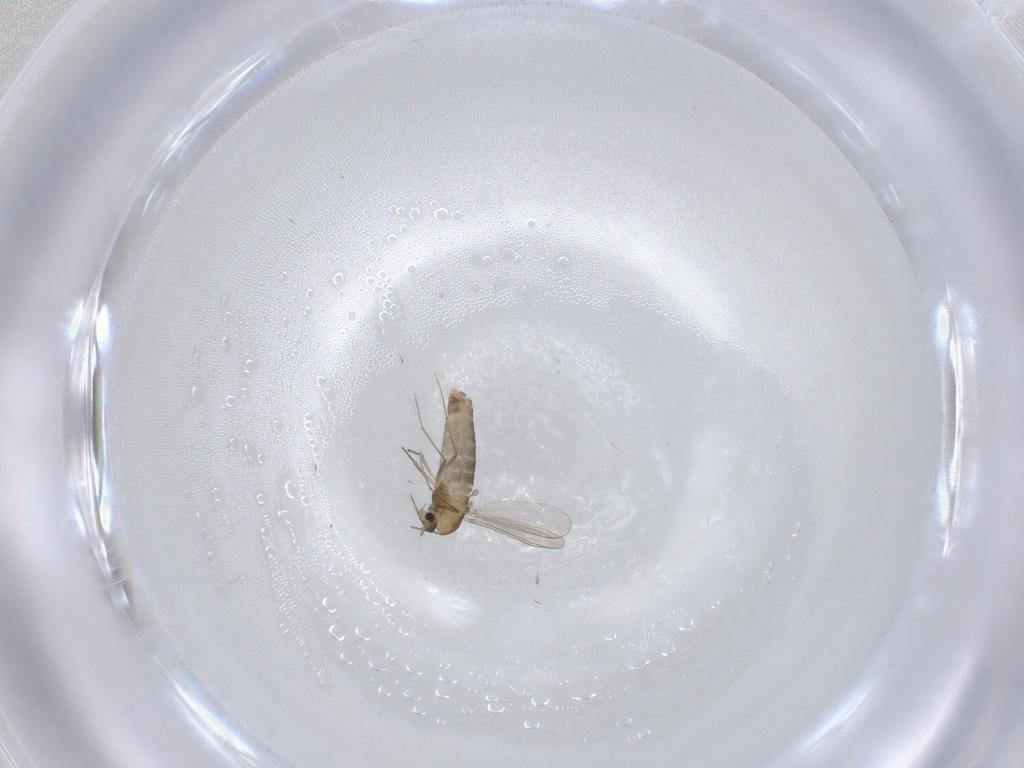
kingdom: Animalia
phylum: Arthropoda
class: Insecta
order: Diptera
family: Chironomidae
